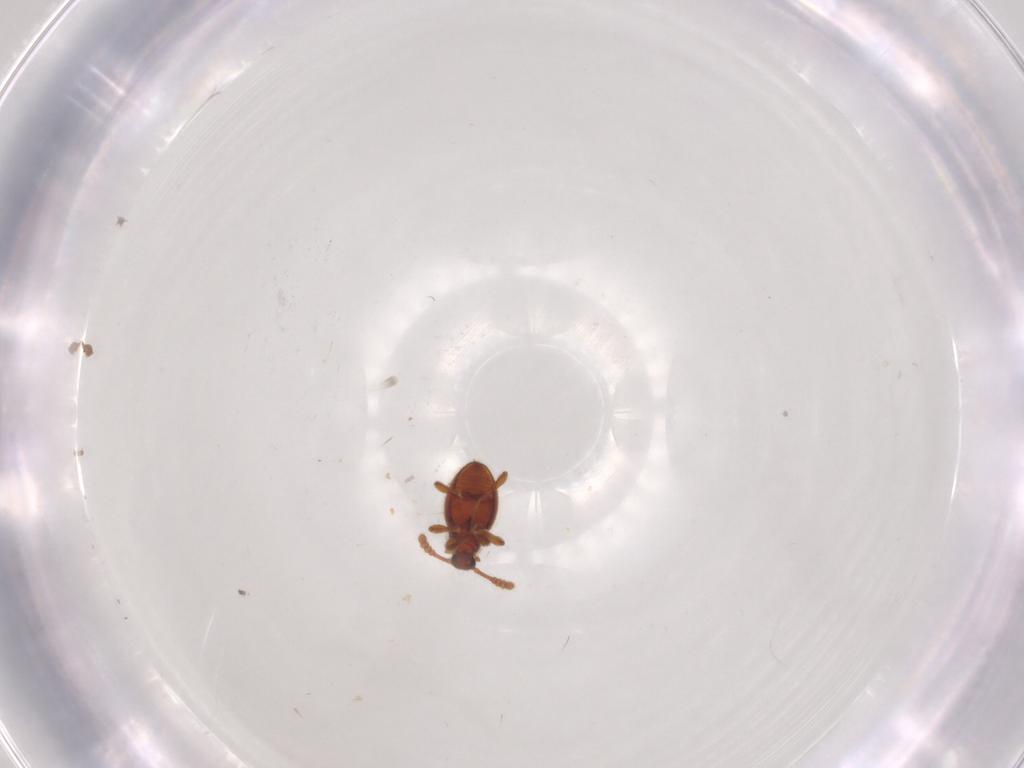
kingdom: Animalia
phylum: Arthropoda
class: Insecta
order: Coleoptera
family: Staphylinidae
